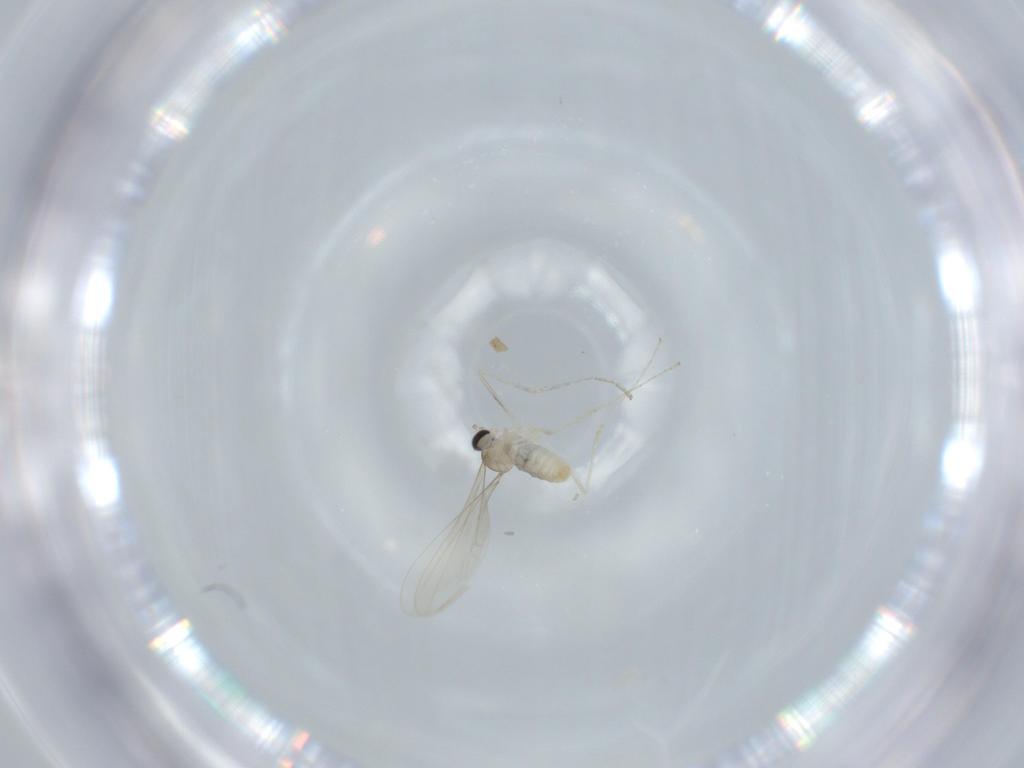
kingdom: Animalia
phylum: Arthropoda
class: Insecta
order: Diptera
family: Cecidomyiidae
